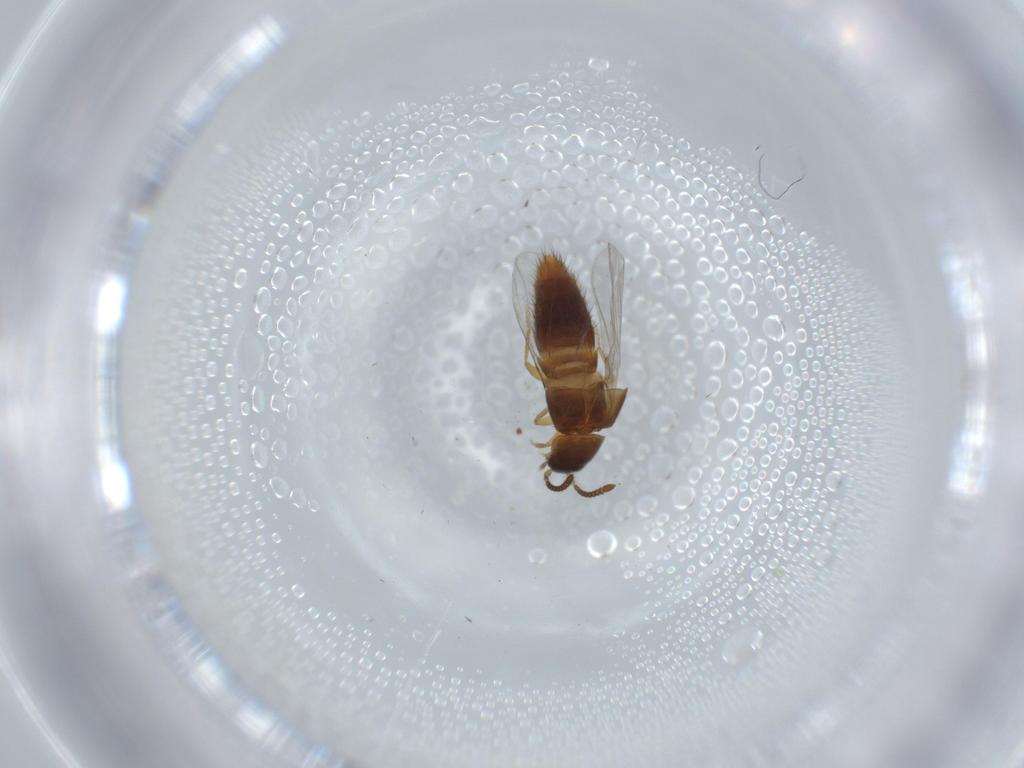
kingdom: Animalia
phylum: Arthropoda
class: Insecta
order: Coleoptera
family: Staphylinidae
